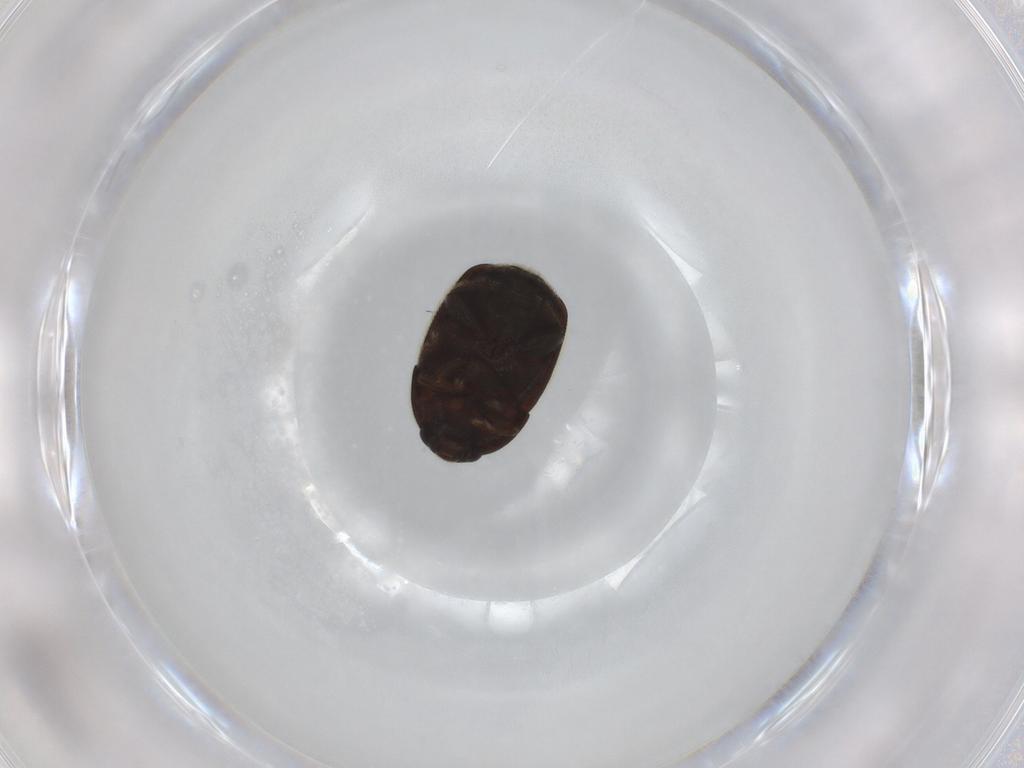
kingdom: Animalia
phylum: Arthropoda
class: Insecta
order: Coleoptera
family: Nitidulidae
